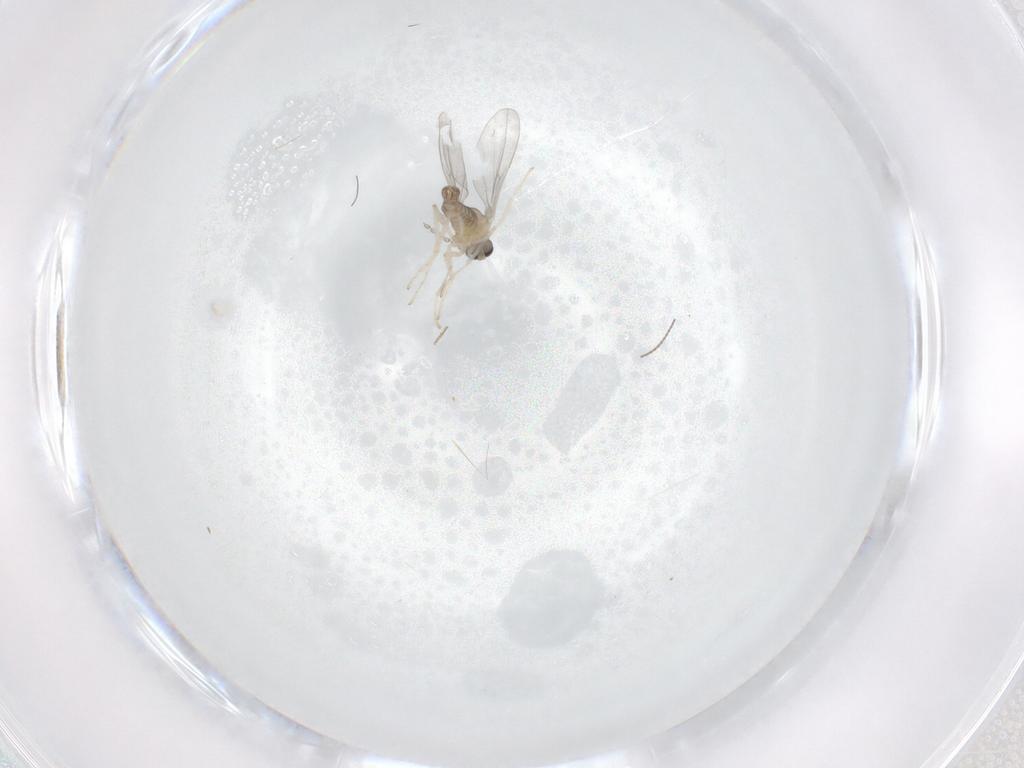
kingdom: Animalia
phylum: Arthropoda
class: Insecta
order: Diptera
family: Cecidomyiidae
